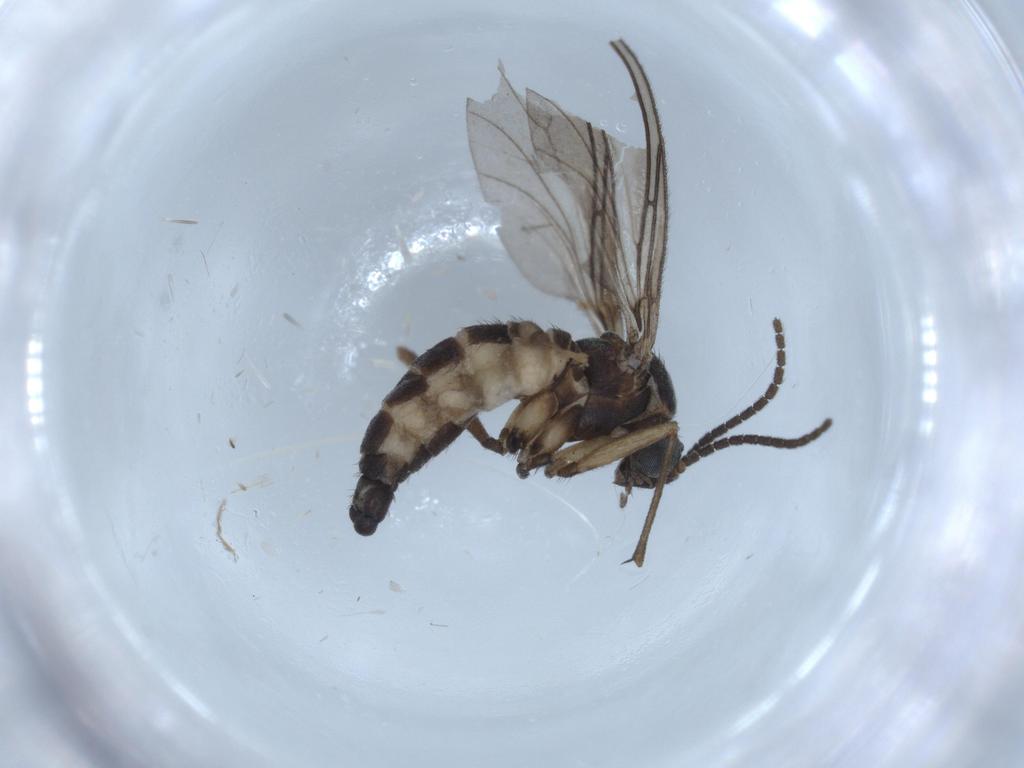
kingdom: Animalia
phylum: Arthropoda
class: Insecta
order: Diptera
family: Sciaridae
